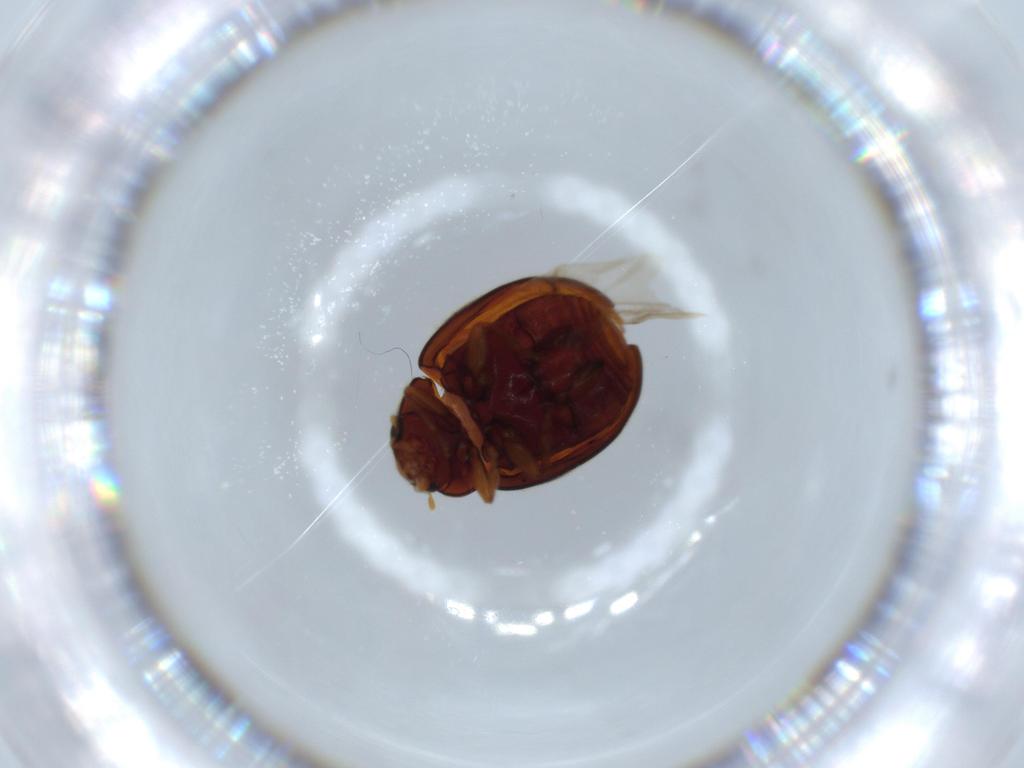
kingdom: Animalia
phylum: Arthropoda
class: Insecta
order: Coleoptera
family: Coccinellidae
